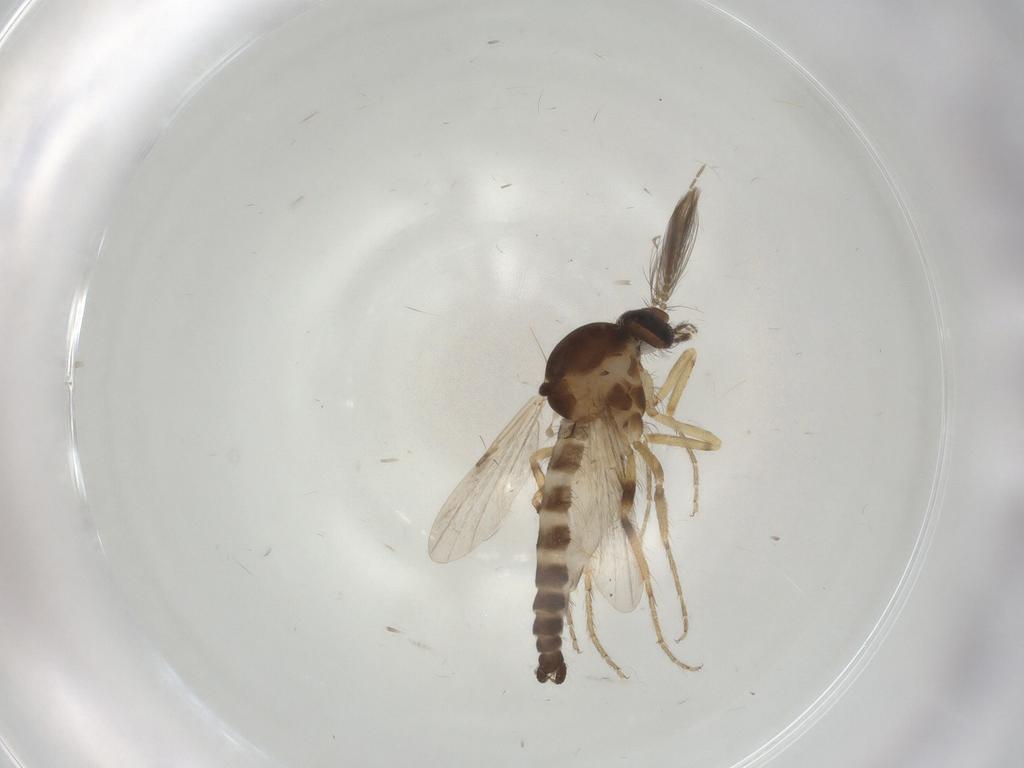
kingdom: Animalia
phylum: Arthropoda
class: Insecta
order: Diptera
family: Ceratopogonidae
